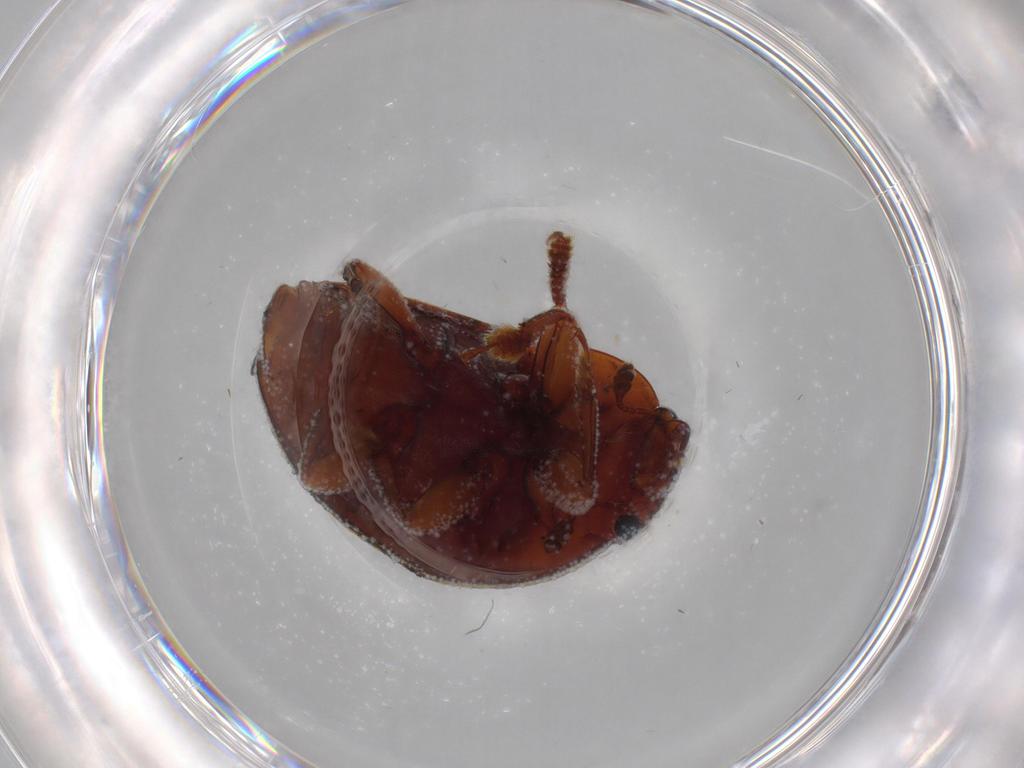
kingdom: Animalia
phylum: Arthropoda
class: Insecta
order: Coleoptera
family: Nitidulidae
